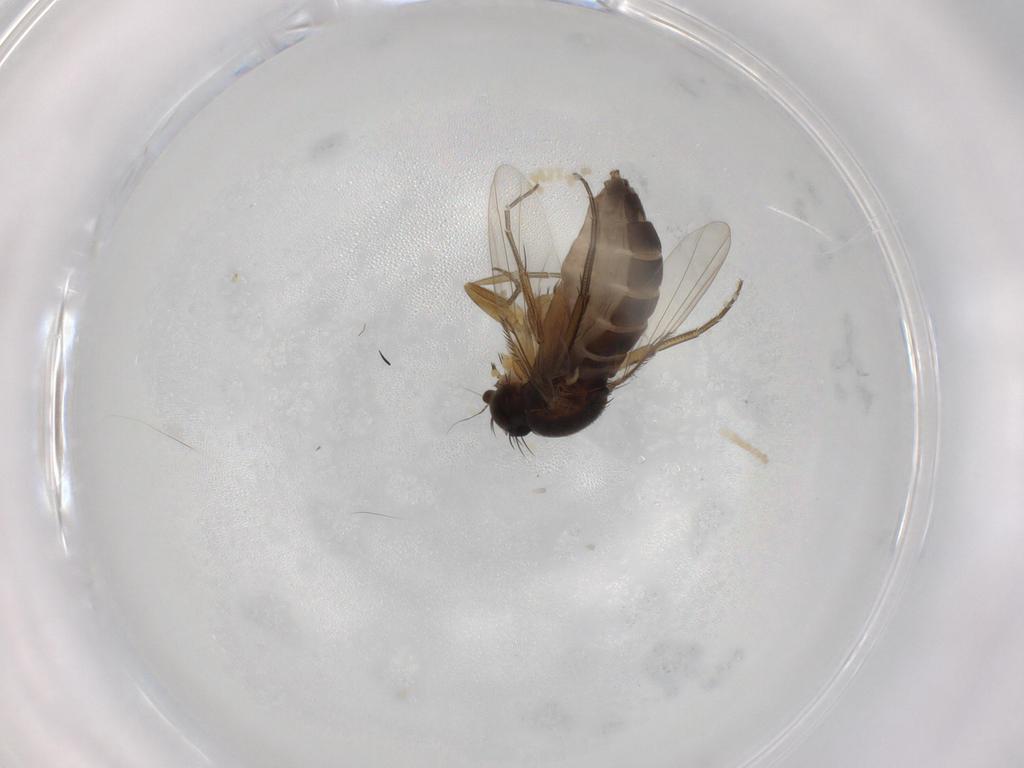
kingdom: Animalia
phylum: Arthropoda
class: Insecta
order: Diptera
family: Phoridae
